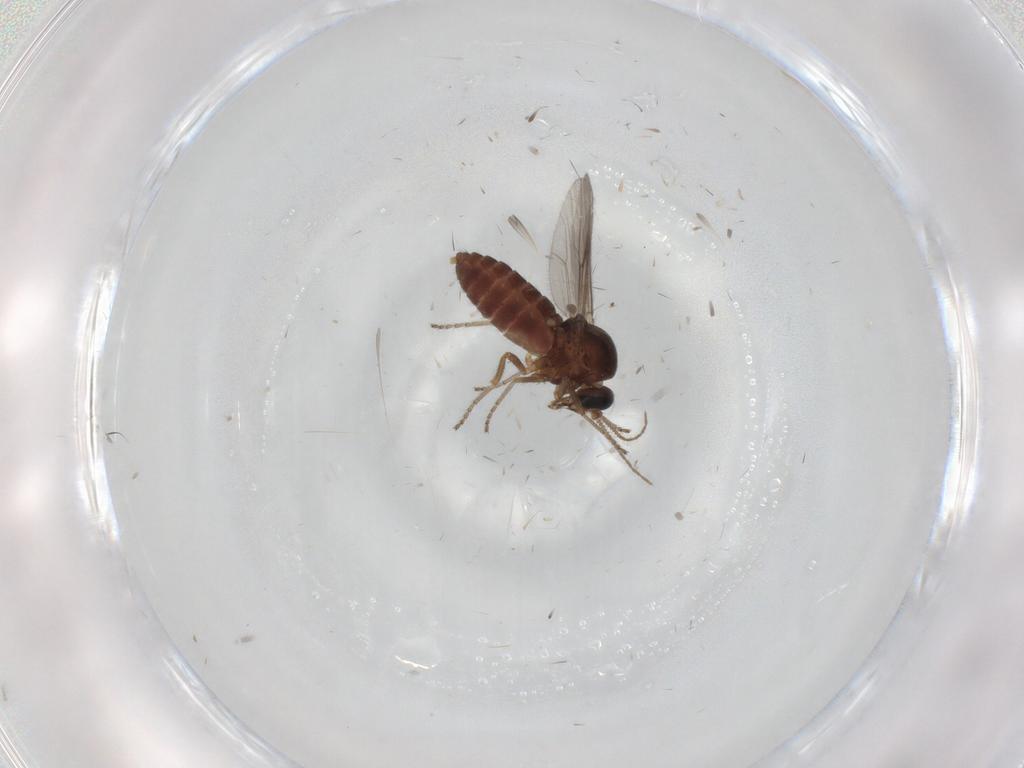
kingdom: Animalia
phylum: Arthropoda
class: Insecta
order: Diptera
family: Ceratopogonidae
